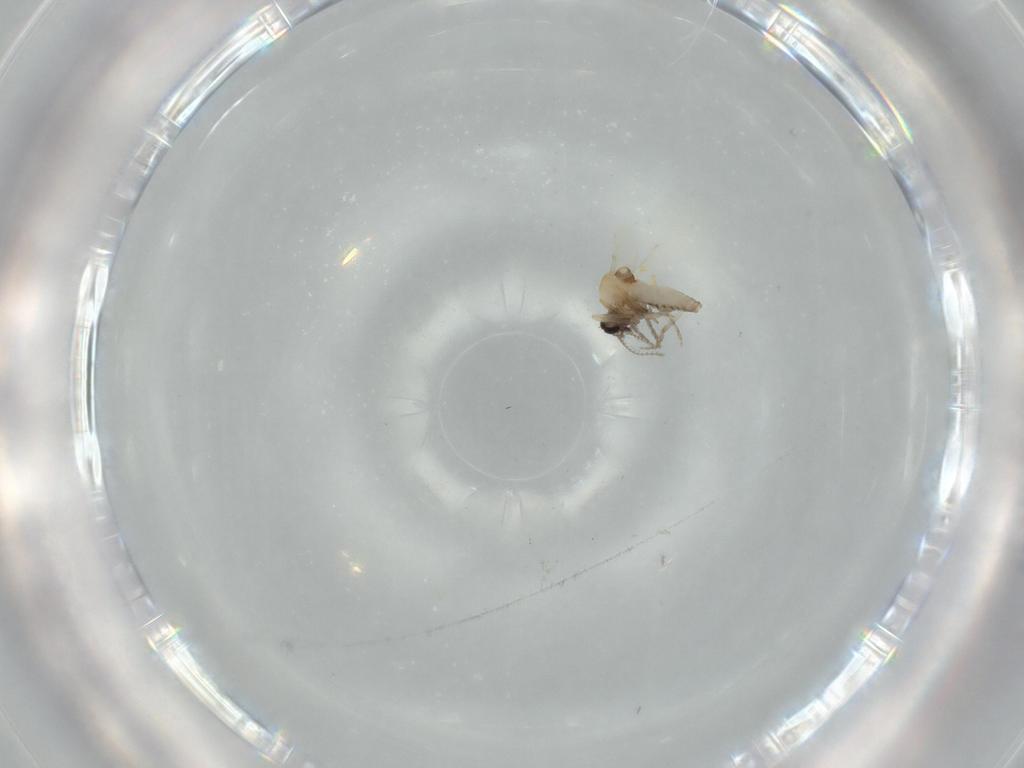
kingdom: Animalia
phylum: Arthropoda
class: Insecta
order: Diptera
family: Ceratopogonidae
